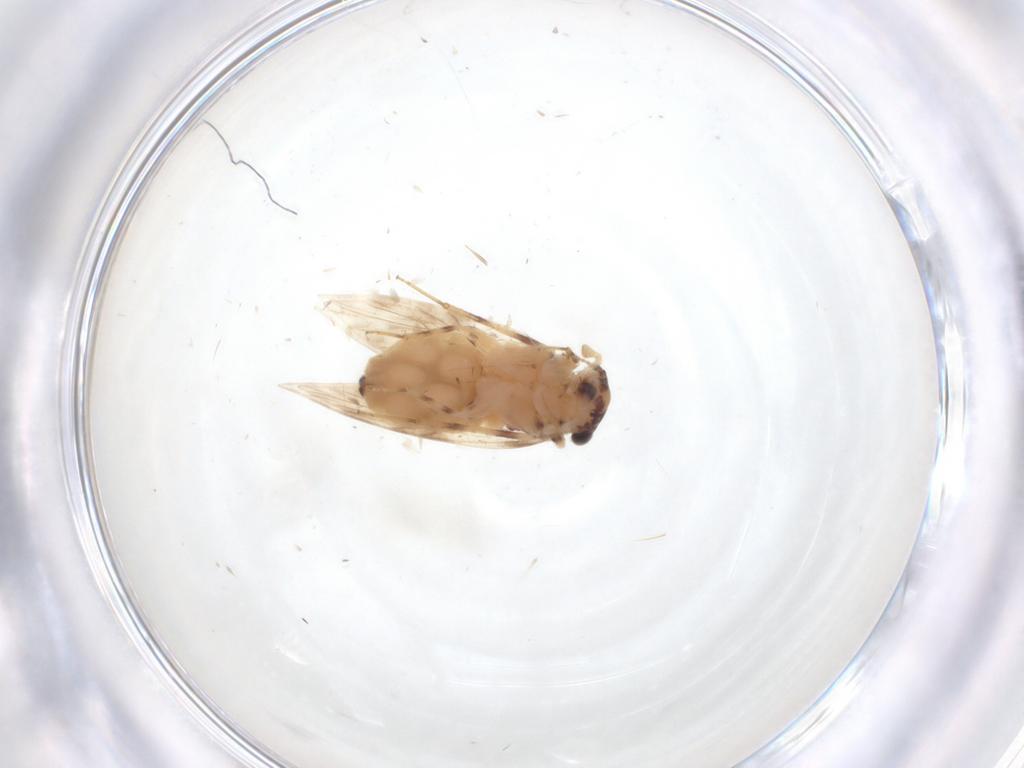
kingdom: Animalia
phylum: Arthropoda
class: Insecta
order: Psocodea
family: Lepidopsocidae
